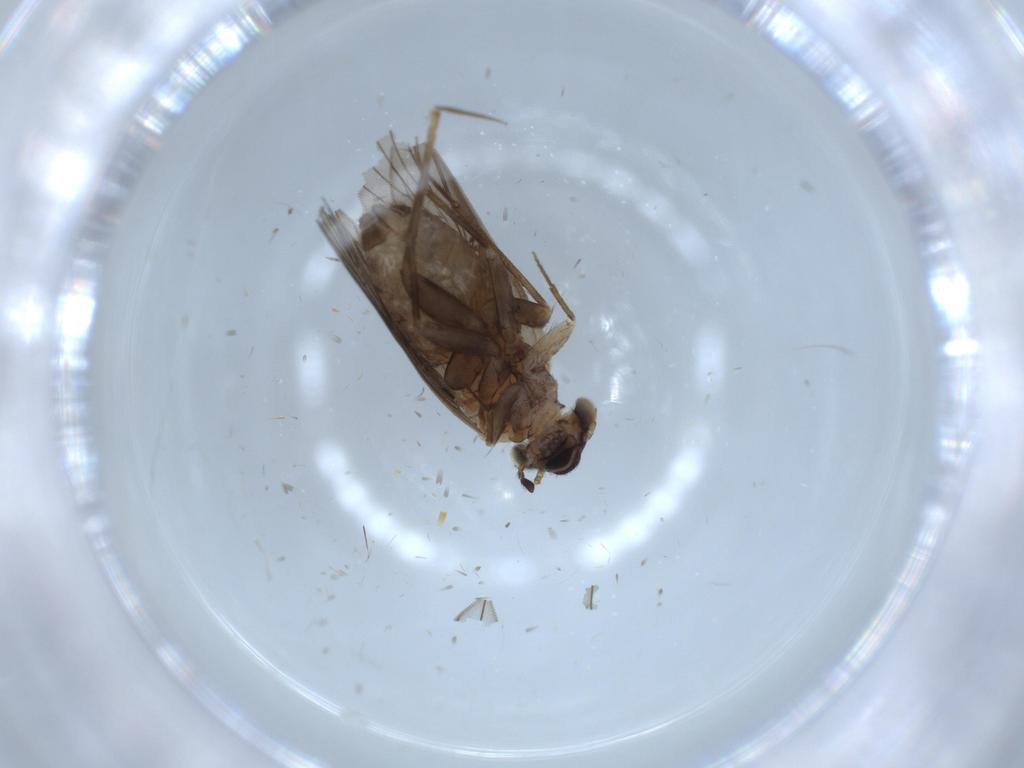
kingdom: Animalia
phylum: Arthropoda
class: Insecta
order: Psocodea
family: Lepidopsocidae
